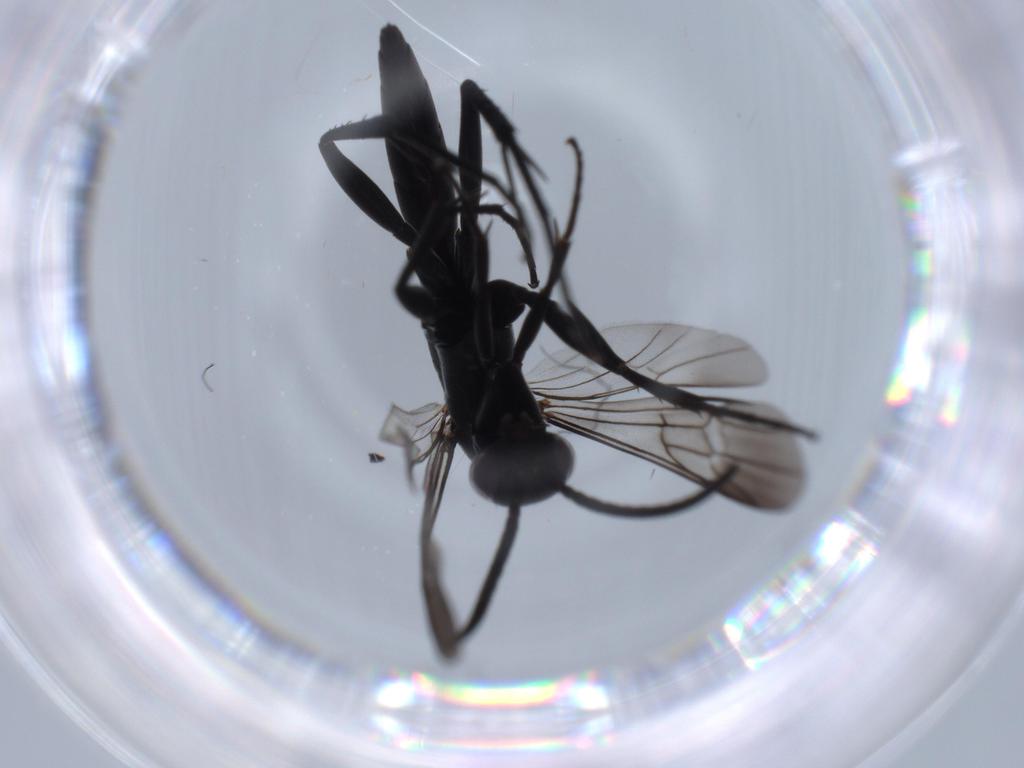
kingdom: Animalia
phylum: Arthropoda
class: Insecta
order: Hymenoptera
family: Pompilidae
